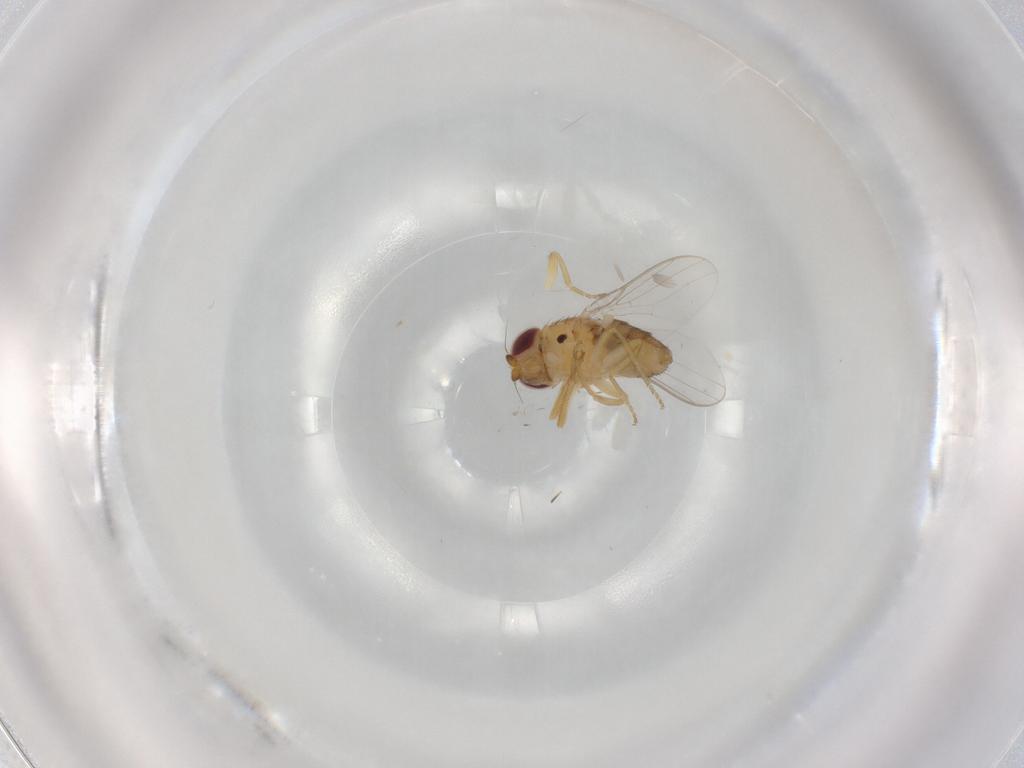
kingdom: Animalia
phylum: Arthropoda
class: Insecta
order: Diptera
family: Chloropidae
